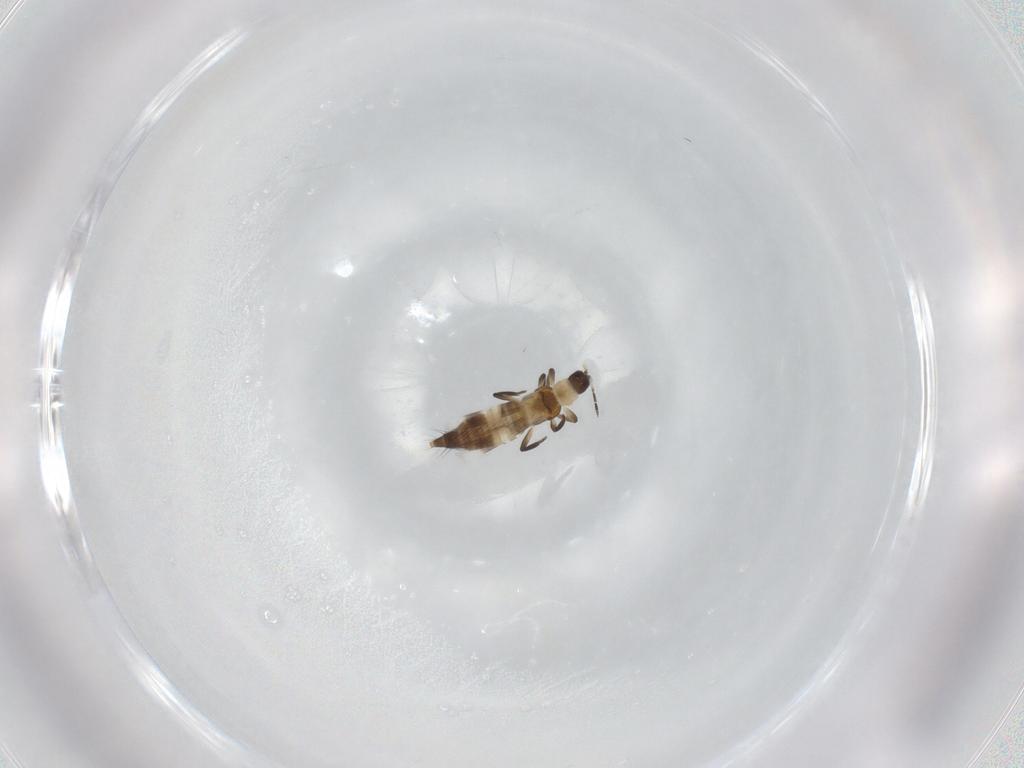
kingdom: Animalia
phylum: Arthropoda
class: Insecta
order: Thysanoptera
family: Aeolothripidae
